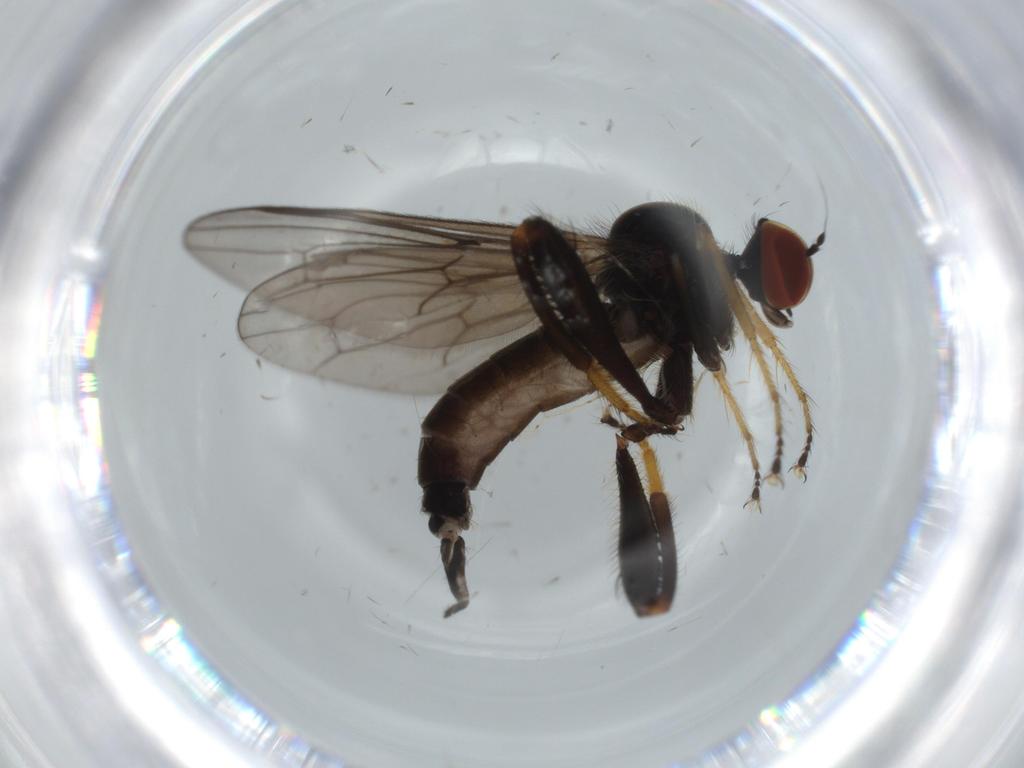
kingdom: Animalia
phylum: Arthropoda
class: Insecta
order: Diptera
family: Hybotidae
